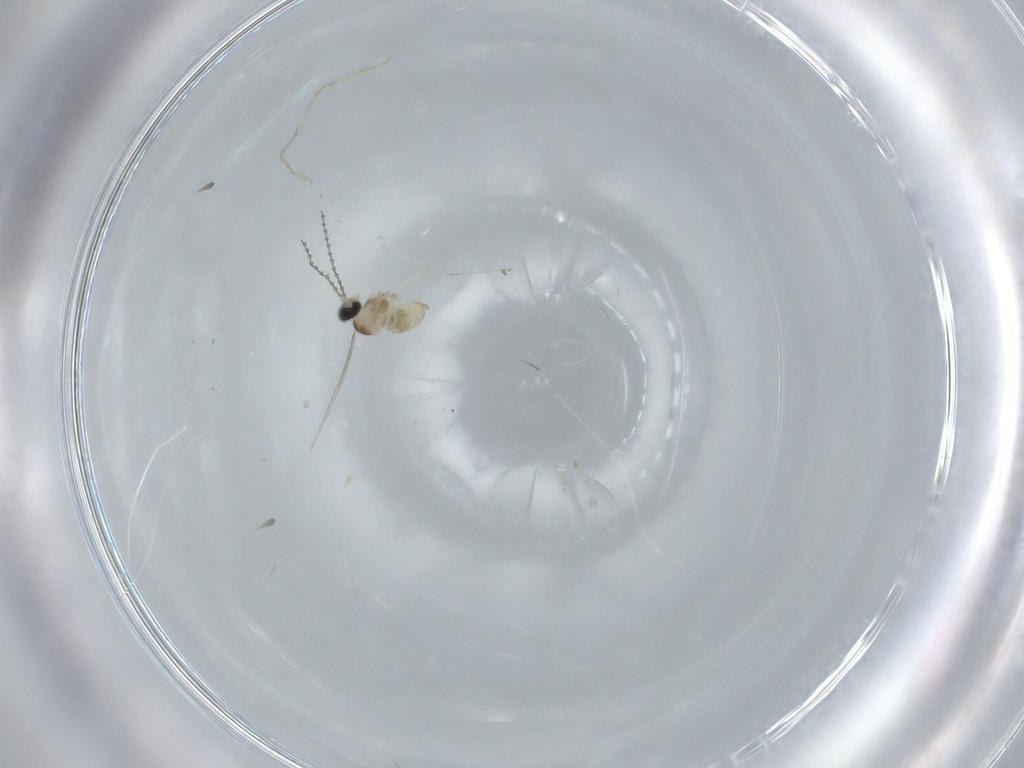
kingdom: Animalia
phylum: Arthropoda
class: Insecta
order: Diptera
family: Cecidomyiidae
